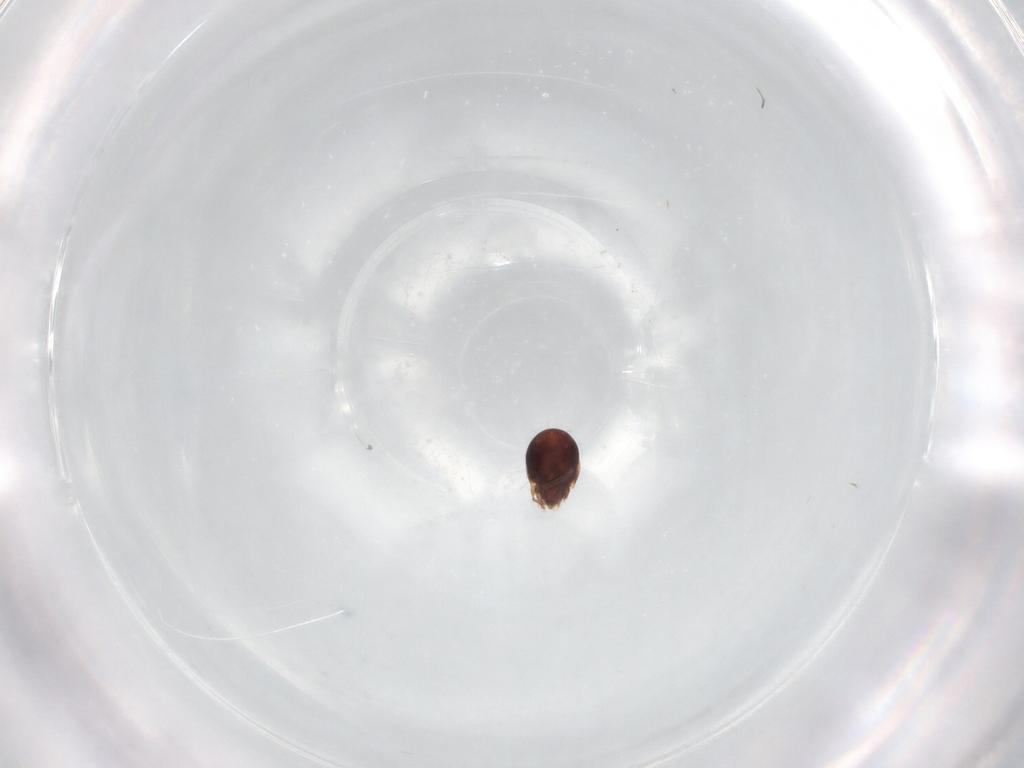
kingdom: Animalia
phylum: Arthropoda
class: Arachnida
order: Sarcoptiformes
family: Humerobatidae
